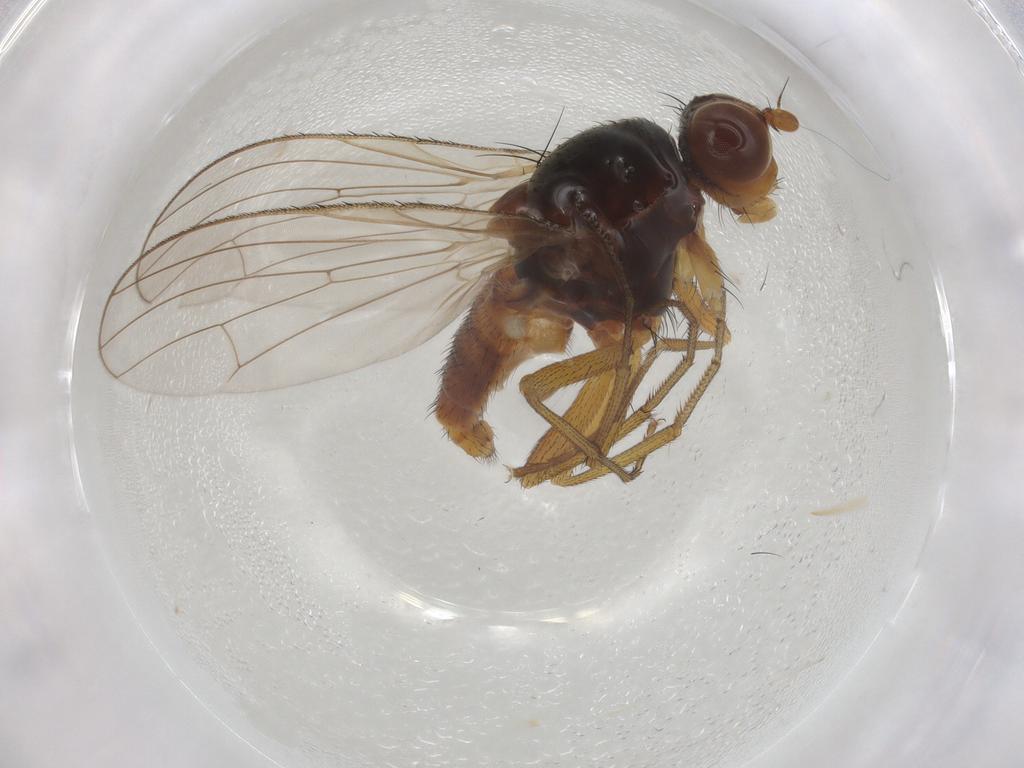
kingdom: Animalia
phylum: Arthropoda
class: Insecta
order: Diptera
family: Heleomyzidae
